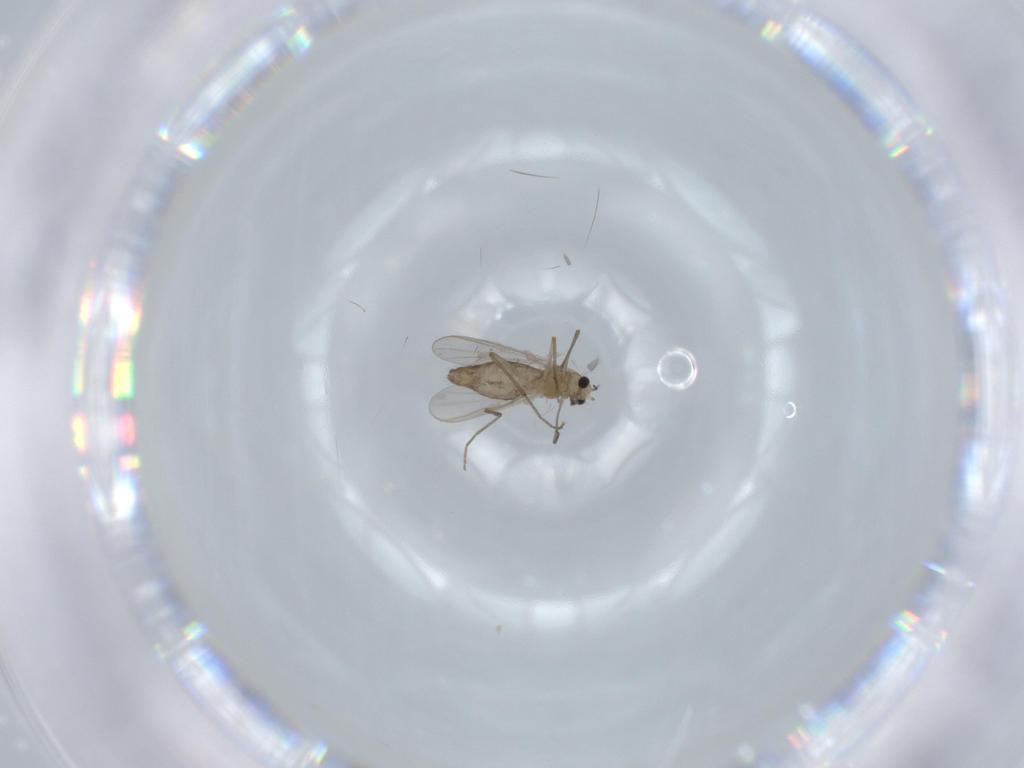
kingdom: Animalia
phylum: Arthropoda
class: Insecta
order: Diptera
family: Chironomidae
